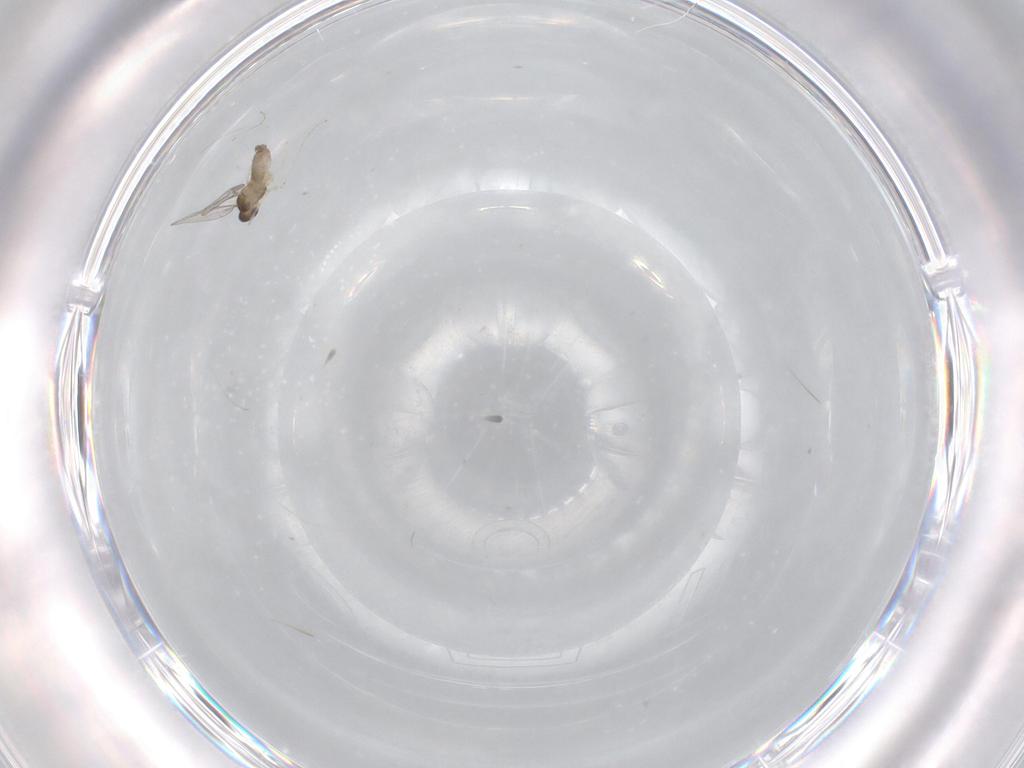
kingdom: Animalia
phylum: Arthropoda
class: Insecta
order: Diptera
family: Cecidomyiidae
